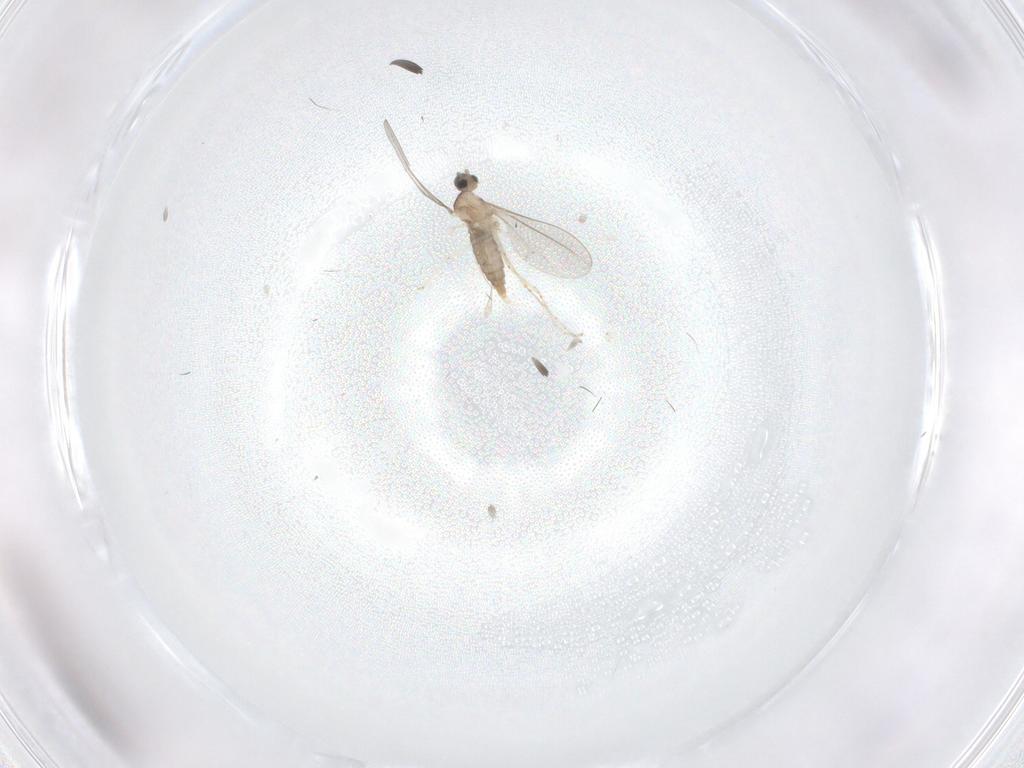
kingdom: Animalia
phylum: Arthropoda
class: Insecta
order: Diptera
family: Cecidomyiidae
